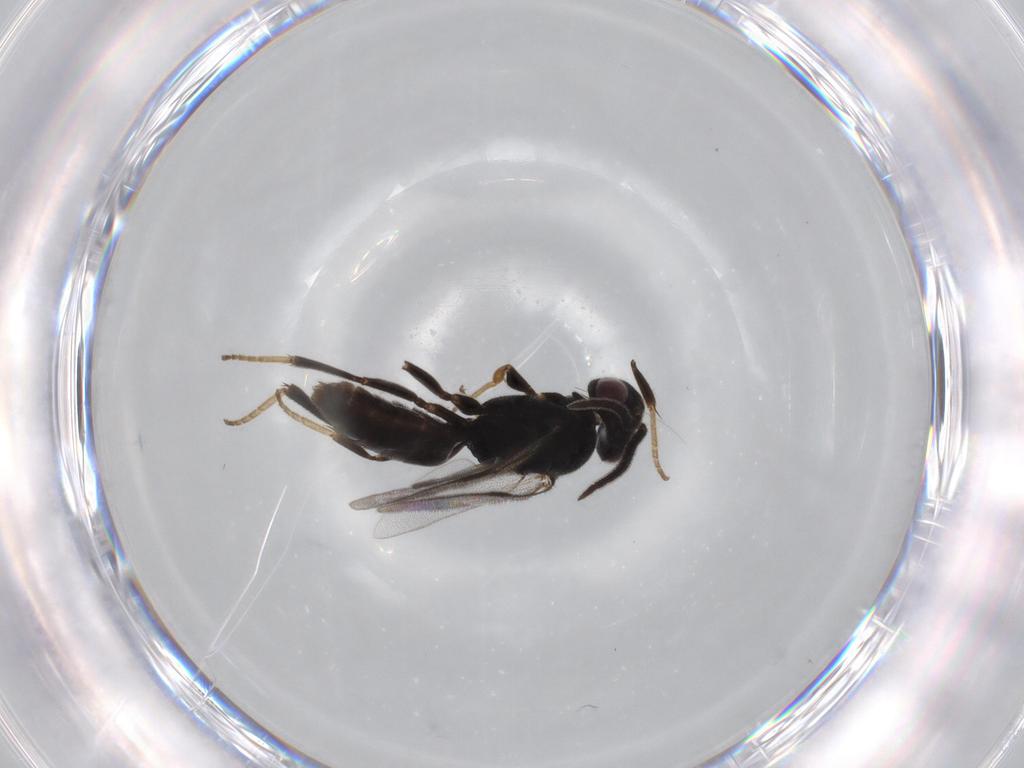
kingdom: Animalia
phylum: Arthropoda
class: Insecta
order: Hymenoptera
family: Dryinidae
